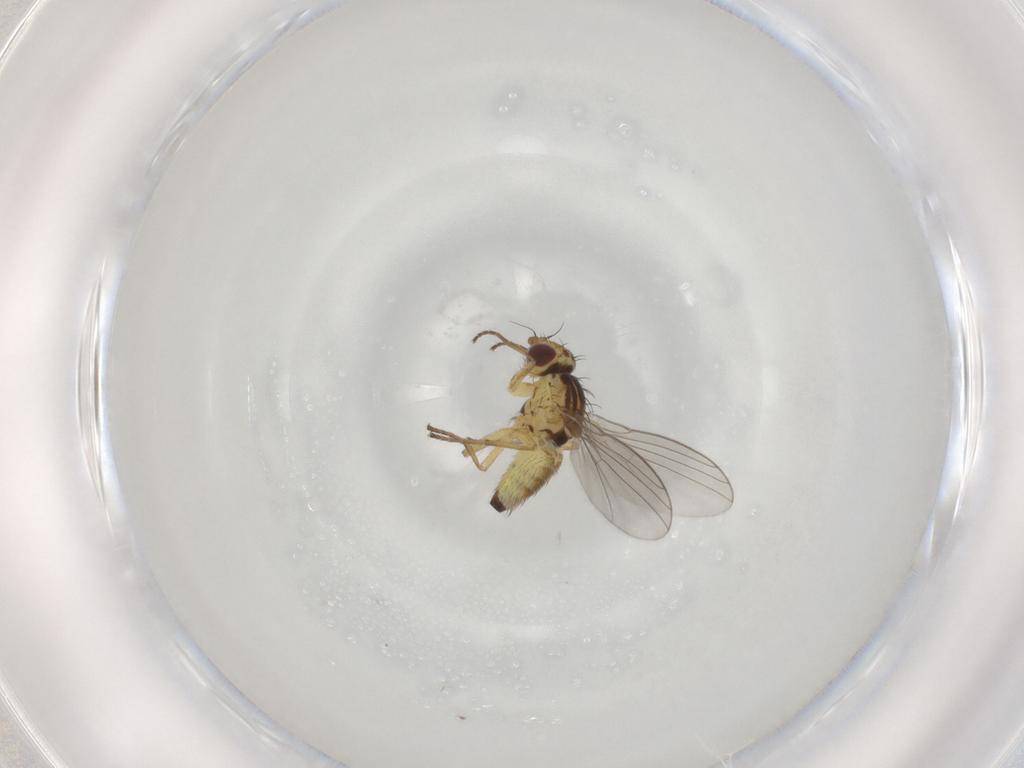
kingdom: Animalia
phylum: Arthropoda
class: Insecta
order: Diptera
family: Agromyzidae
